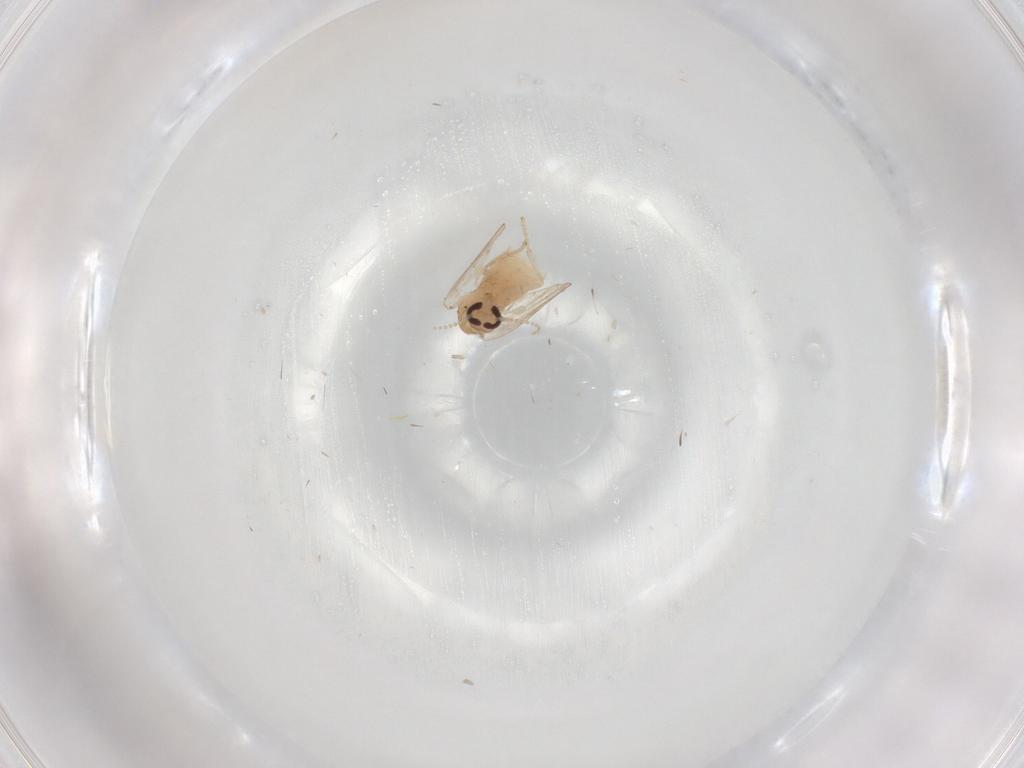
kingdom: Animalia
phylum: Arthropoda
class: Insecta
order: Diptera
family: Psychodidae
